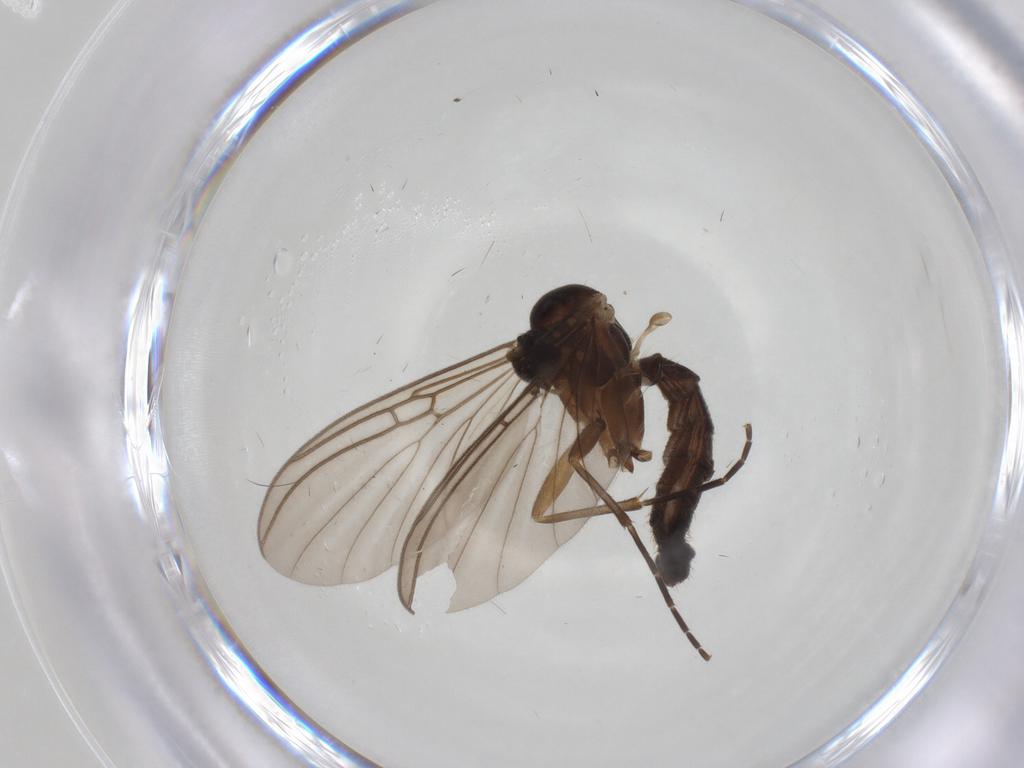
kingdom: Animalia
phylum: Arthropoda
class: Insecta
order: Diptera
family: Mycetophilidae
